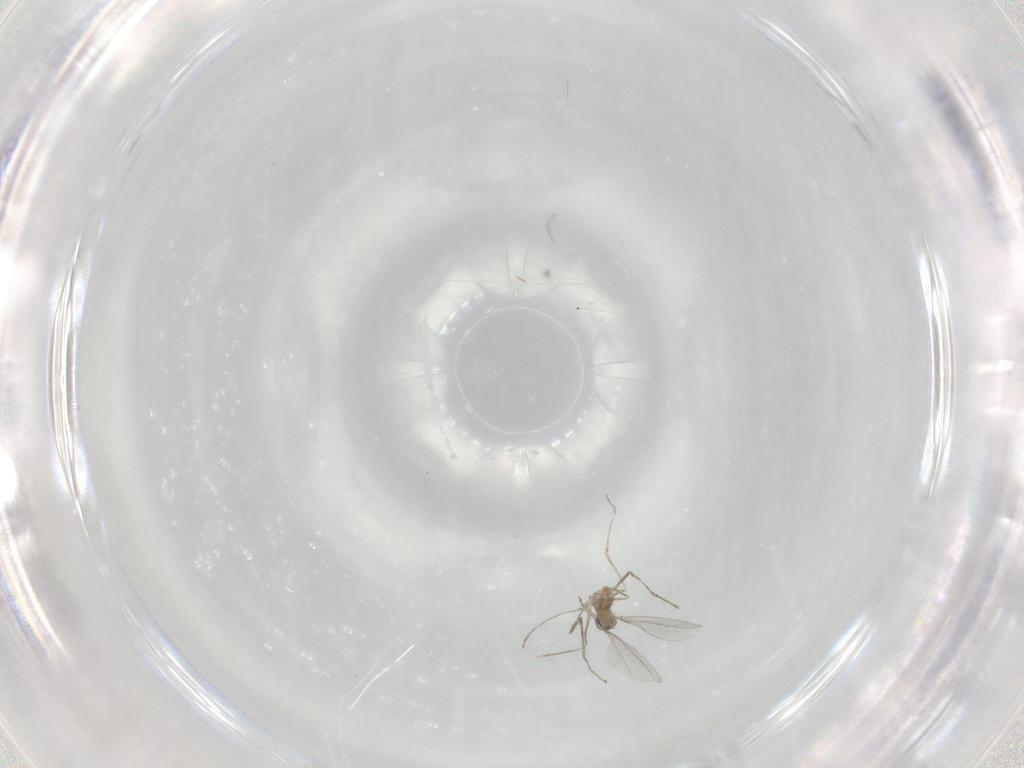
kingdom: Animalia
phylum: Arthropoda
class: Insecta
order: Diptera
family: Cecidomyiidae
